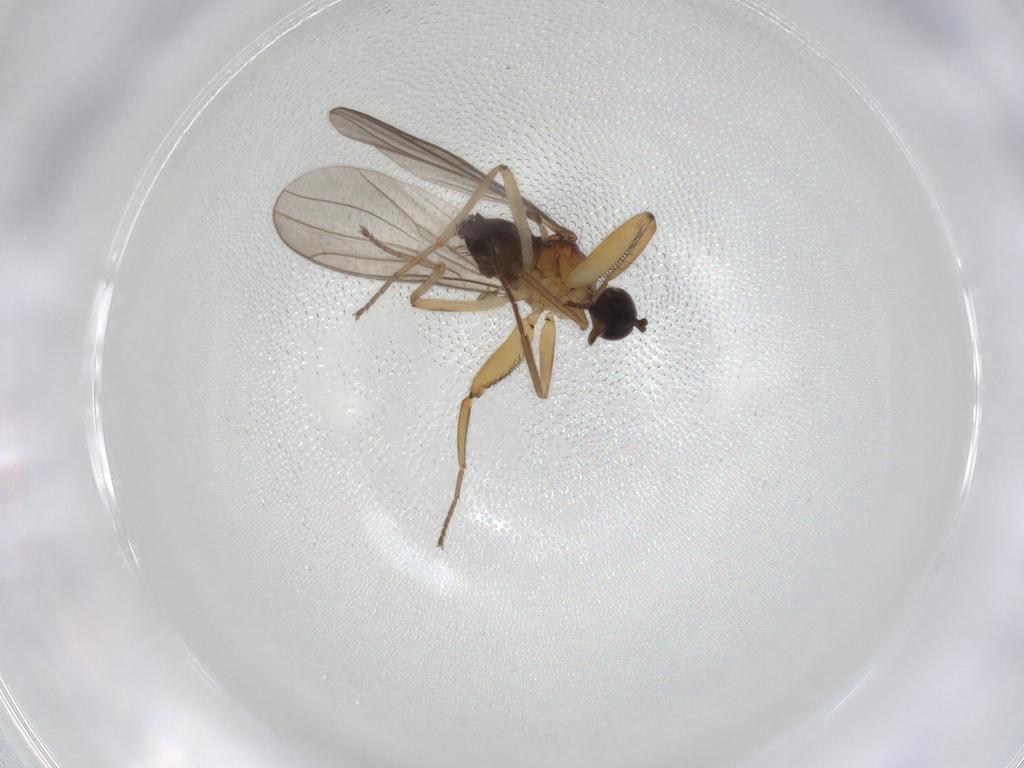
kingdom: Animalia
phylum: Arthropoda
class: Insecta
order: Diptera
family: Hybotidae
